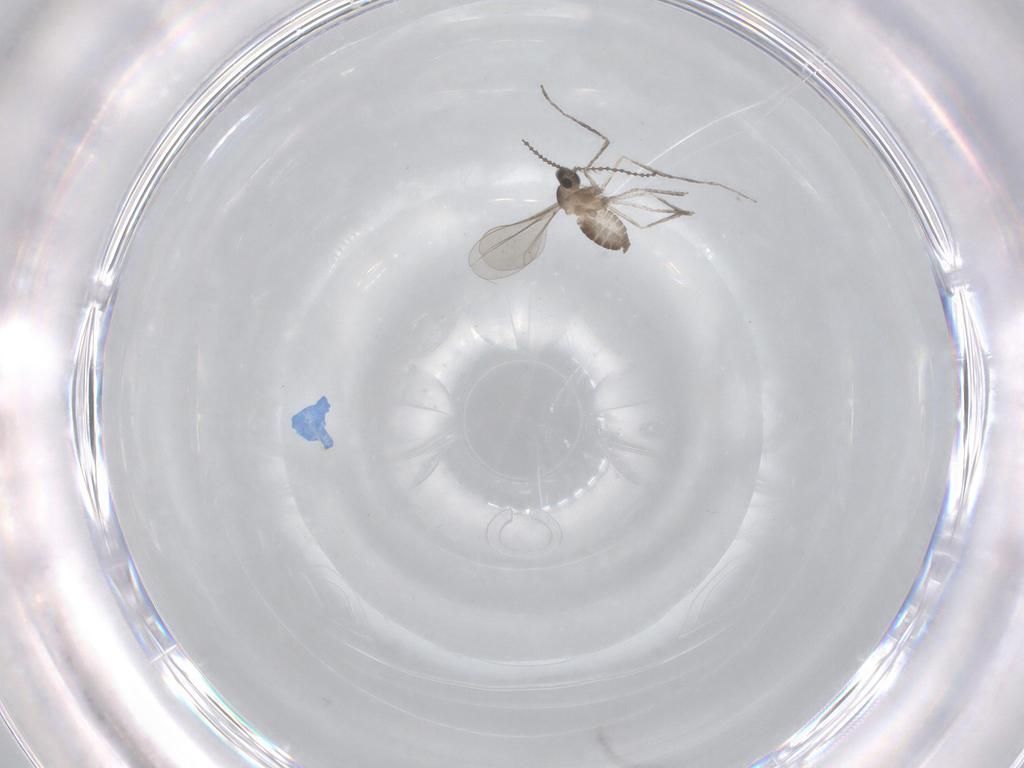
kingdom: Animalia
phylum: Arthropoda
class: Insecta
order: Diptera
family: Cecidomyiidae
